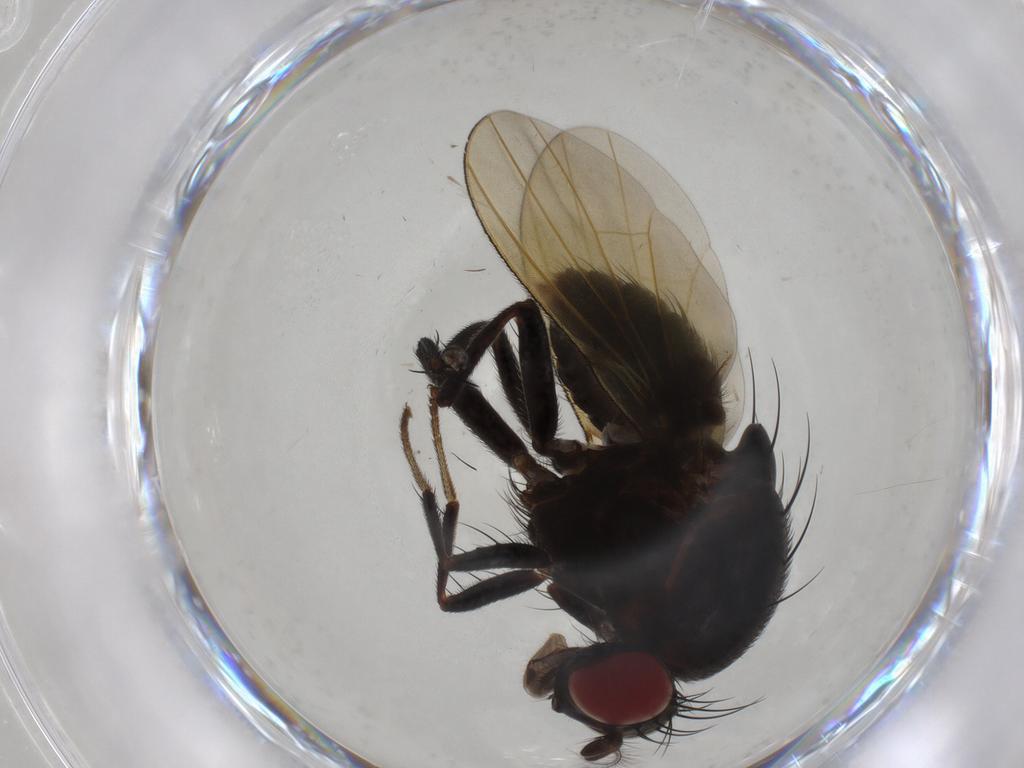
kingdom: Animalia
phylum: Arthropoda
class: Insecta
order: Diptera
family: Cecidomyiidae
